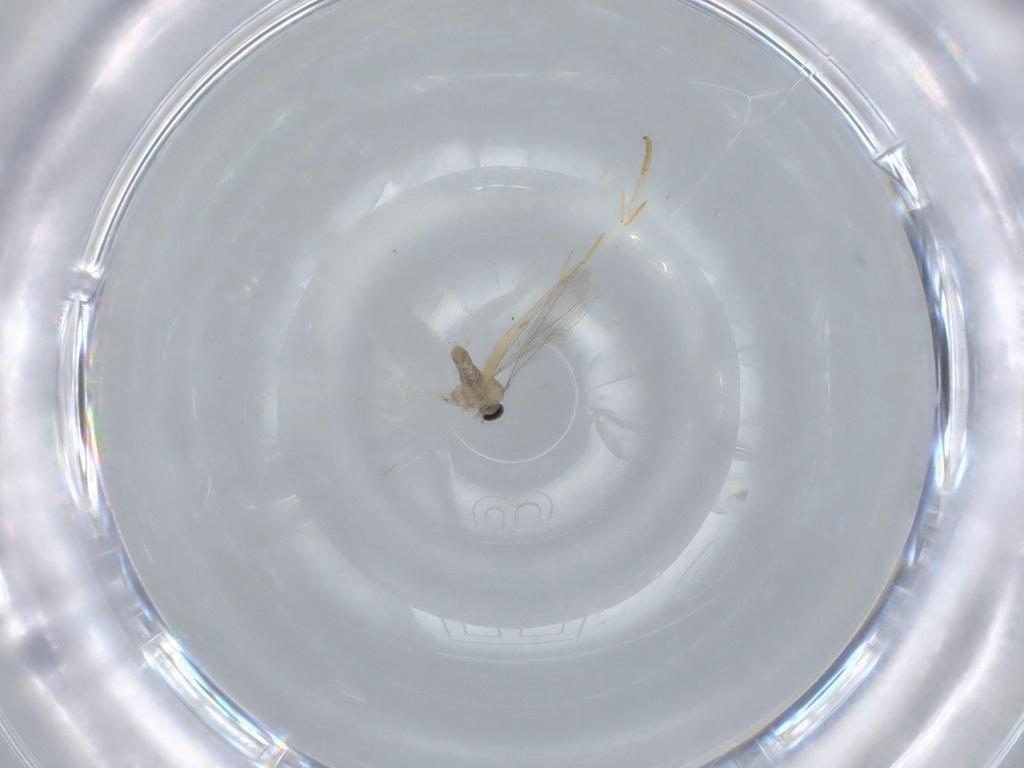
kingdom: Animalia
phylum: Arthropoda
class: Insecta
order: Diptera
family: Cecidomyiidae
